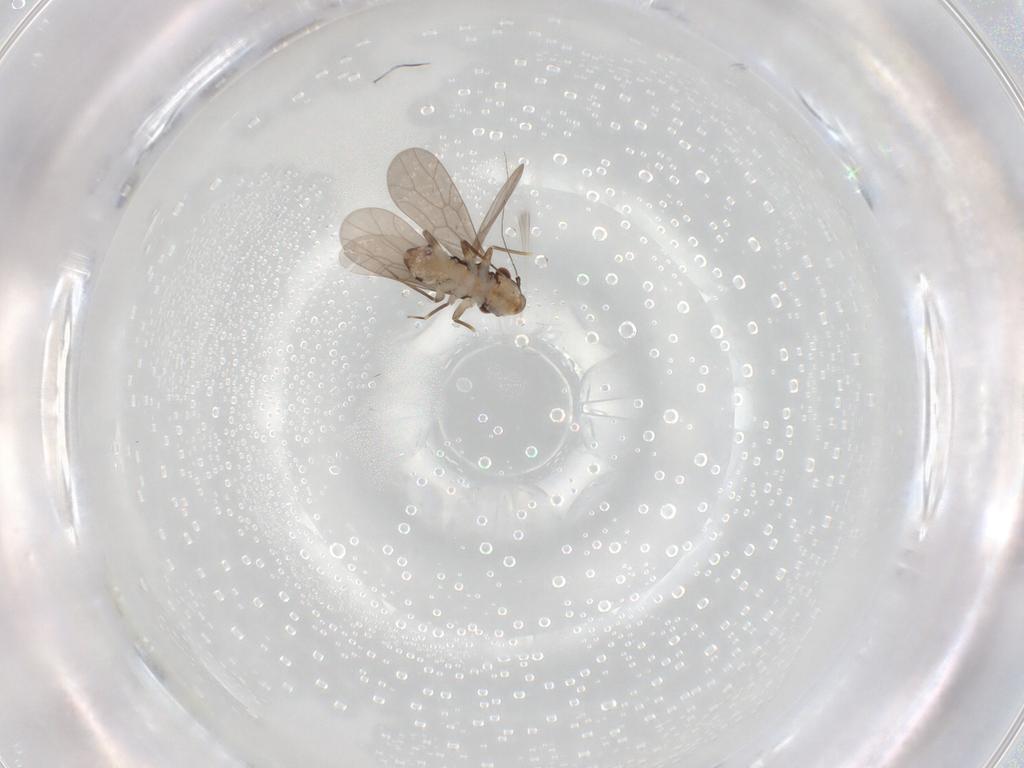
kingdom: Animalia
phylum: Arthropoda
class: Insecta
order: Psocodea
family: Lepidopsocidae
